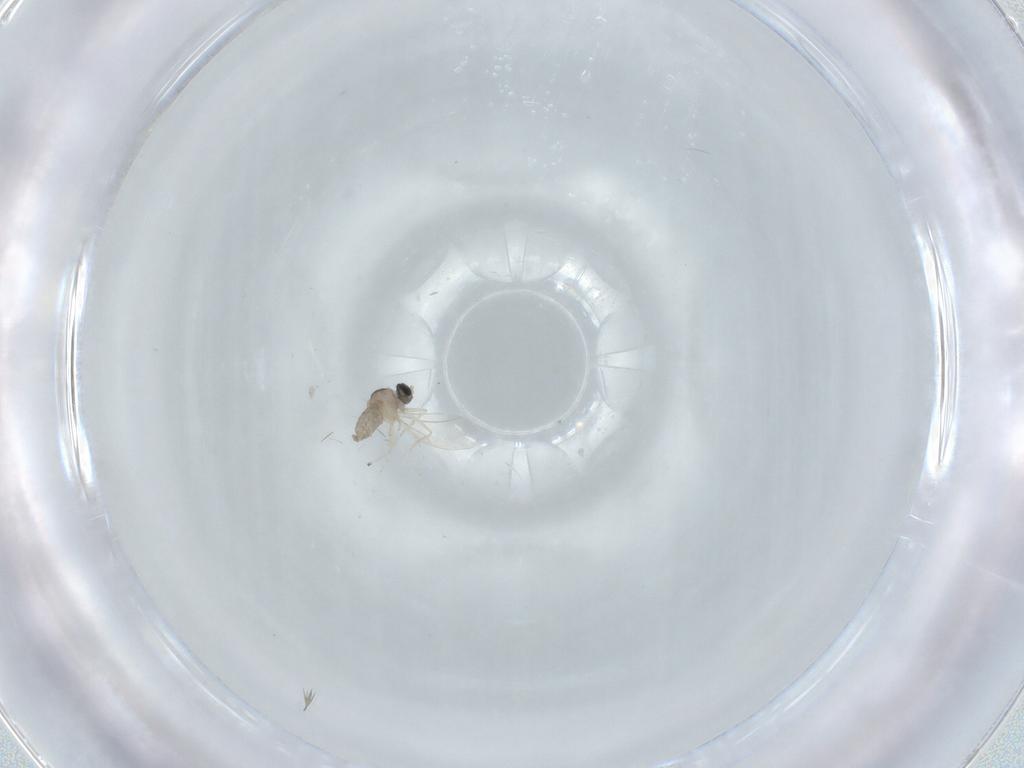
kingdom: Animalia
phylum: Arthropoda
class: Insecta
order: Diptera
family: Cecidomyiidae
